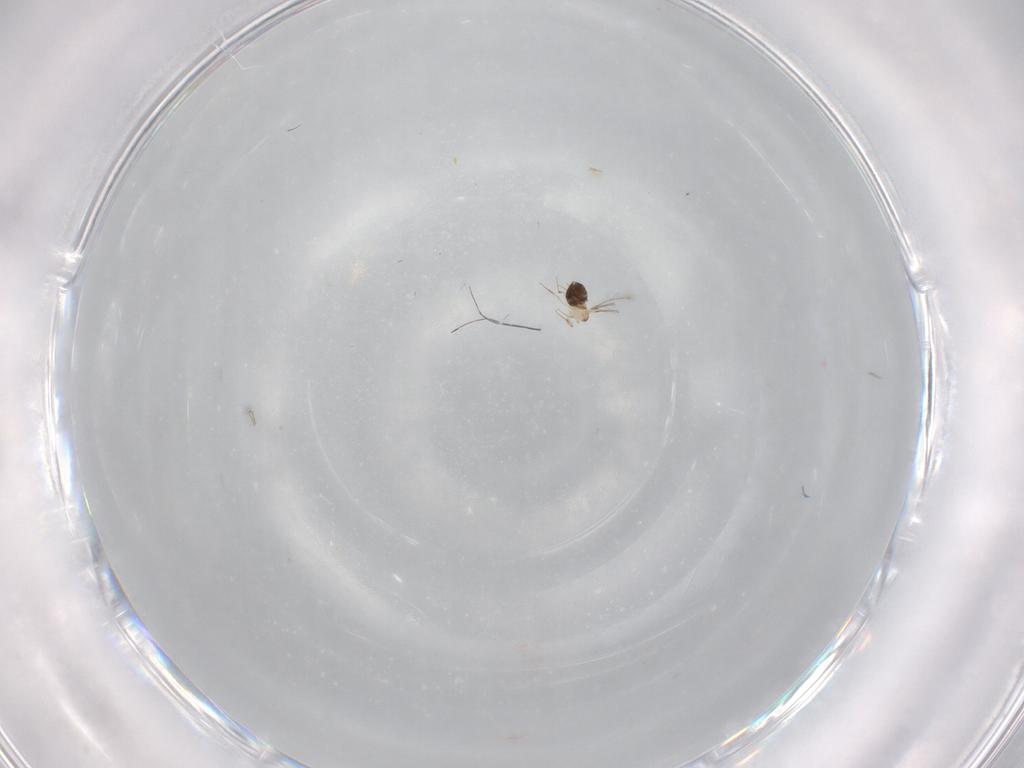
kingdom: Animalia
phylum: Arthropoda
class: Insecta
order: Hymenoptera
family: Mymaridae
